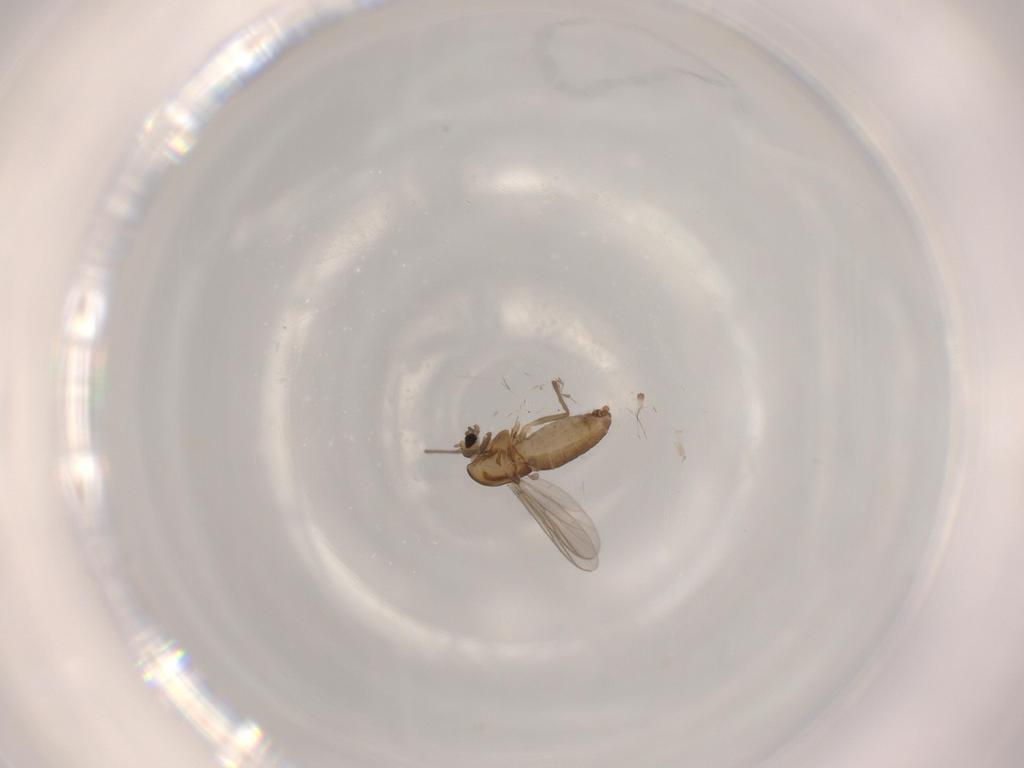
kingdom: Animalia
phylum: Arthropoda
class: Insecta
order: Diptera
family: Chironomidae
